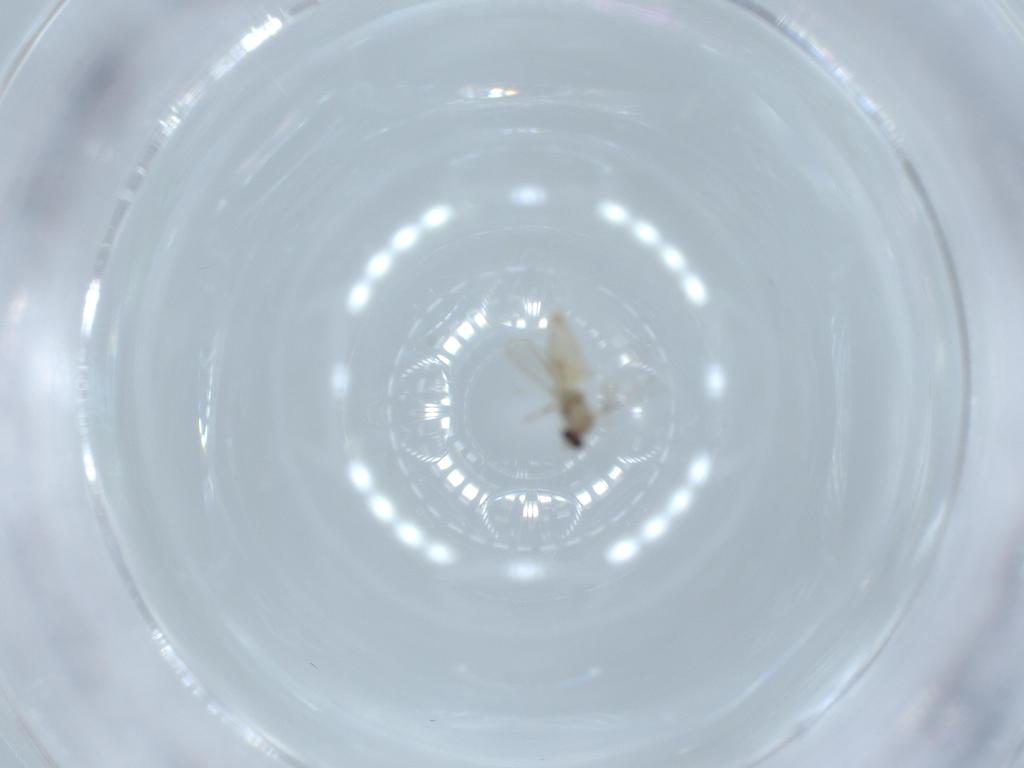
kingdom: Animalia
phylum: Arthropoda
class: Insecta
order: Diptera
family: Cecidomyiidae
